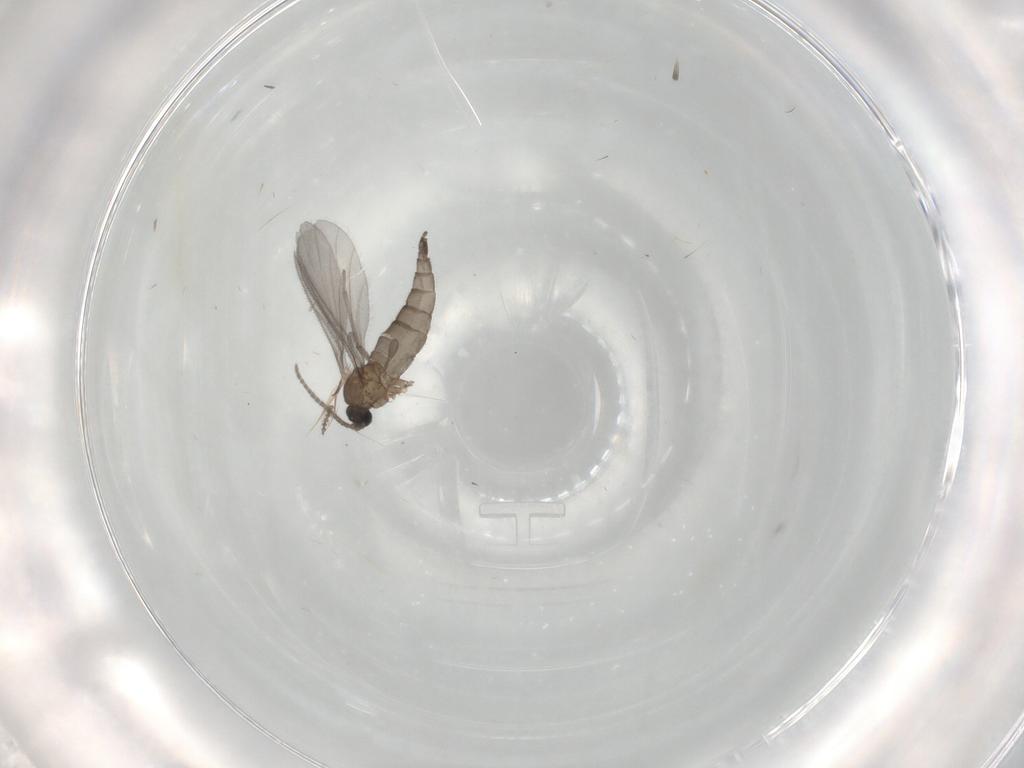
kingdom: Animalia
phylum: Arthropoda
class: Insecta
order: Diptera
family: Sciaridae
